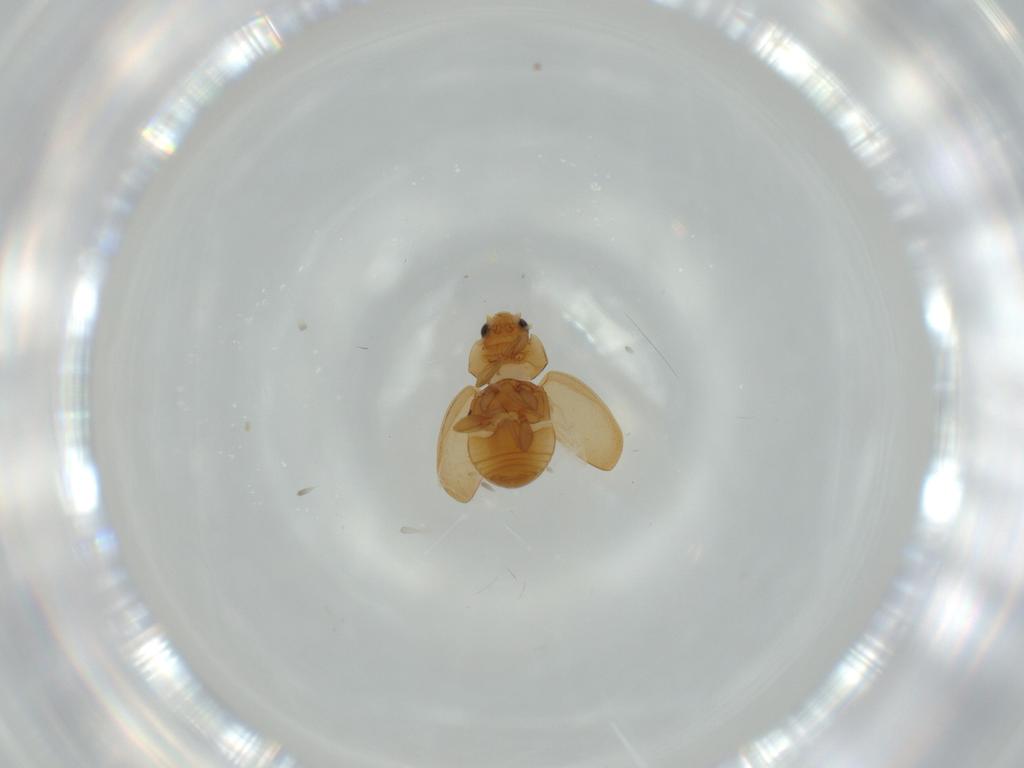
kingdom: Animalia
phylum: Arthropoda
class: Insecta
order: Coleoptera
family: Coccinellidae
